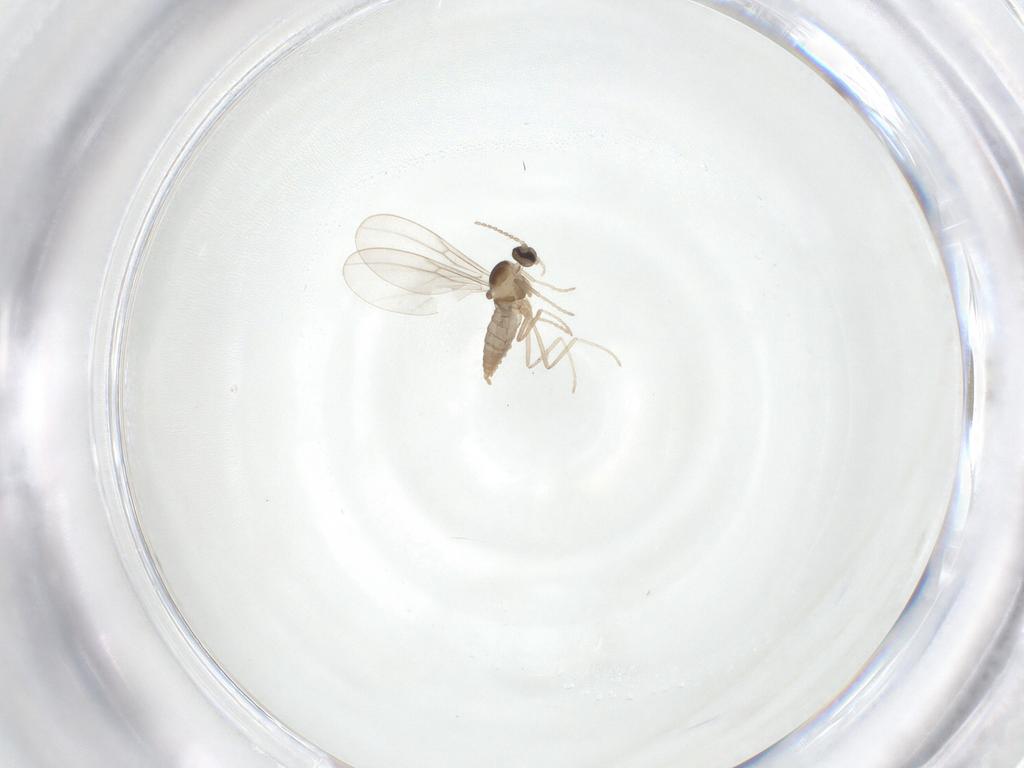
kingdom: Animalia
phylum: Arthropoda
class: Insecta
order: Diptera
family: Cecidomyiidae
